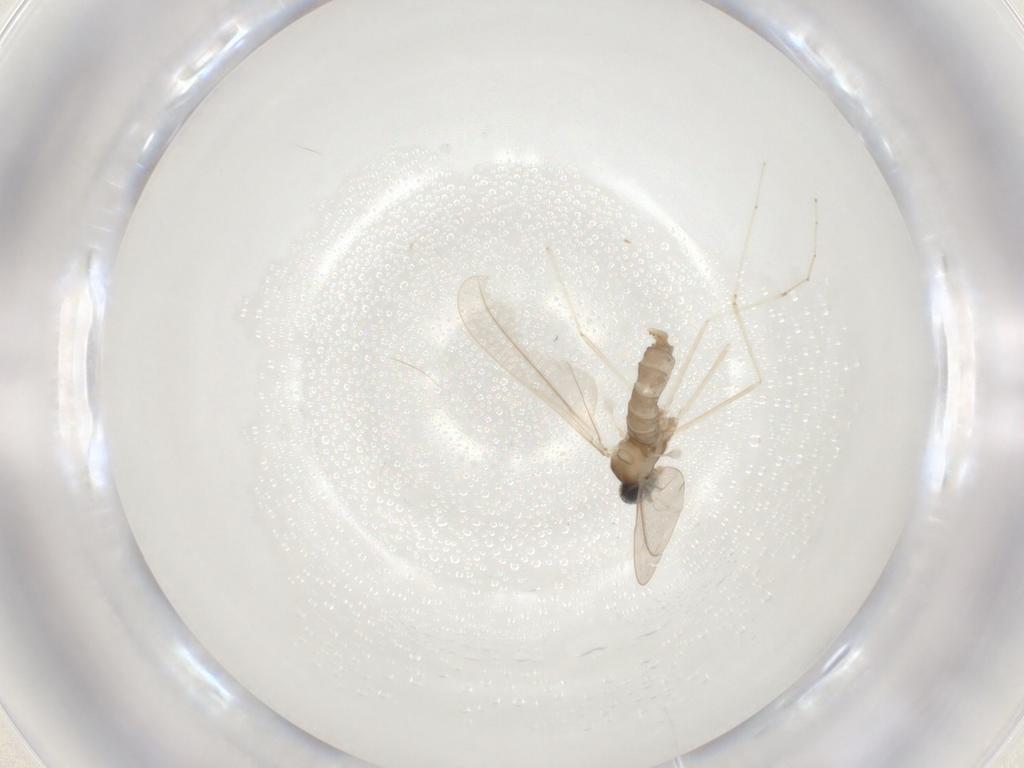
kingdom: Animalia
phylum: Arthropoda
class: Insecta
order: Diptera
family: Cecidomyiidae
